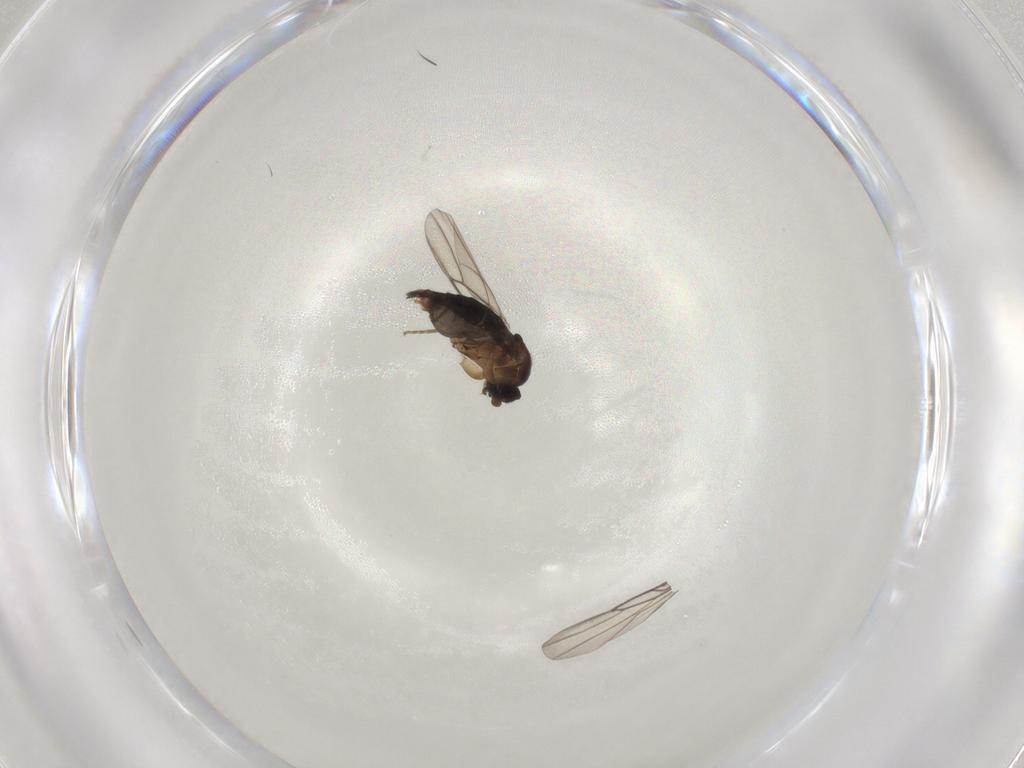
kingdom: Animalia
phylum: Arthropoda
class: Insecta
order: Diptera
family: Phoridae
